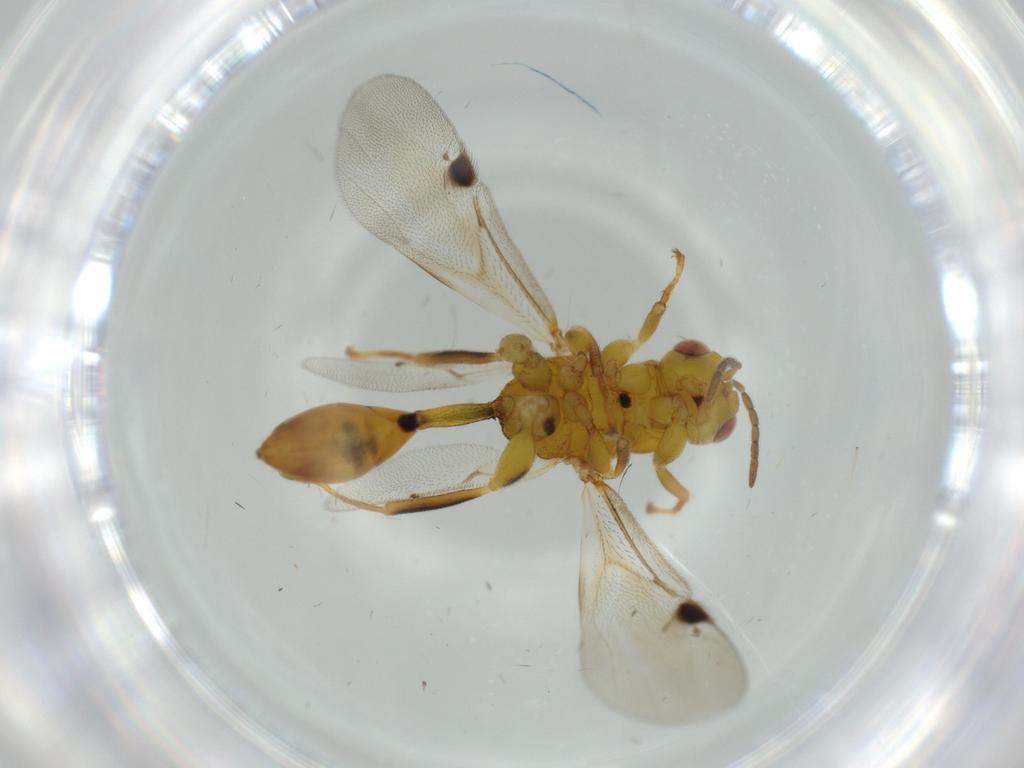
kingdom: Animalia
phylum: Arthropoda
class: Insecta
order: Hymenoptera
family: Eurytomidae
